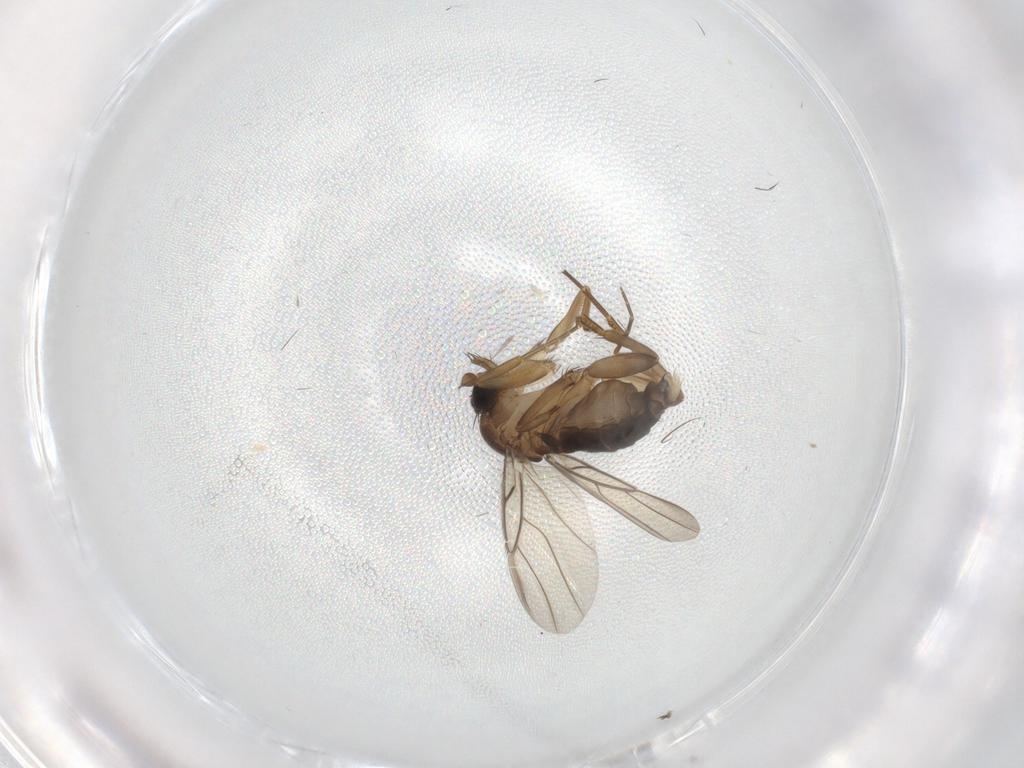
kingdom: Animalia
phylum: Arthropoda
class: Insecta
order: Diptera
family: Phoridae
